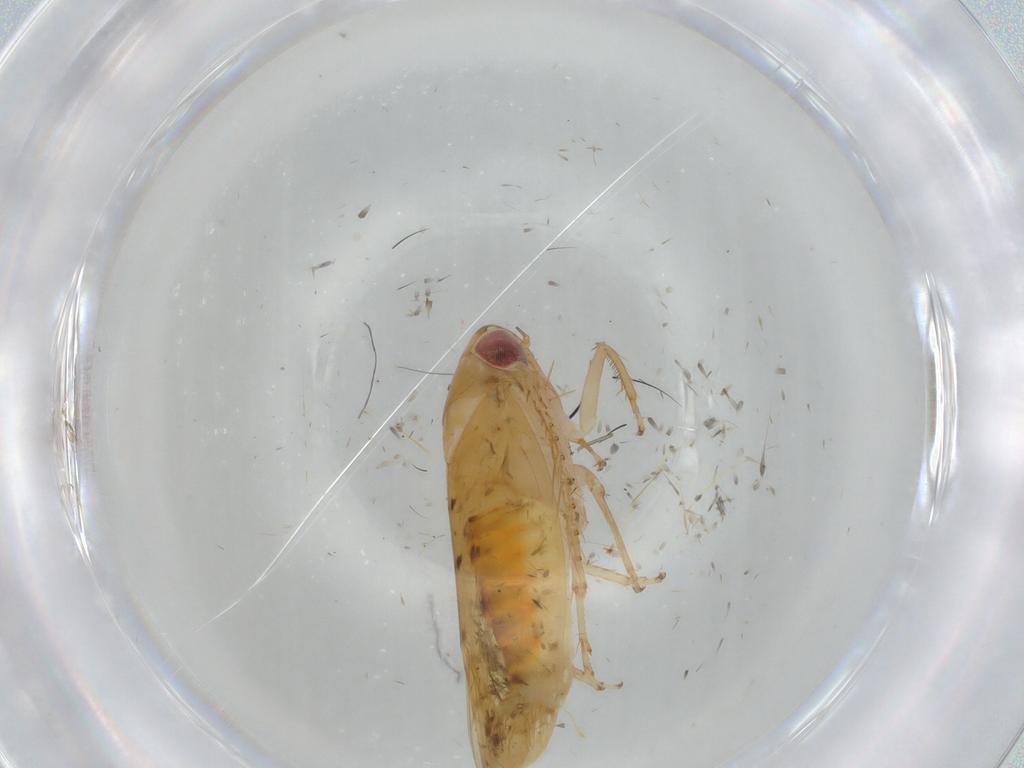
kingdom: Animalia
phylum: Arthropoda
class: Insecta
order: Hemiptera
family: Cicadellidae
